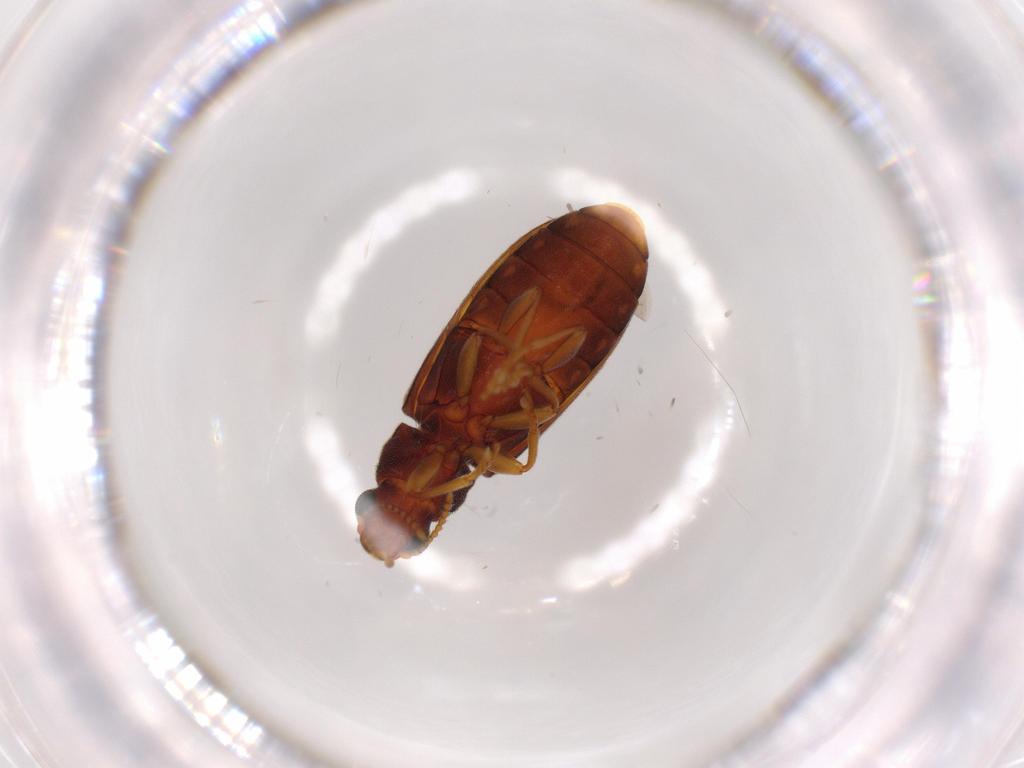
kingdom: Animalia
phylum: Arthropoda
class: Insecta
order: Coleoptera
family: Mycteridae
